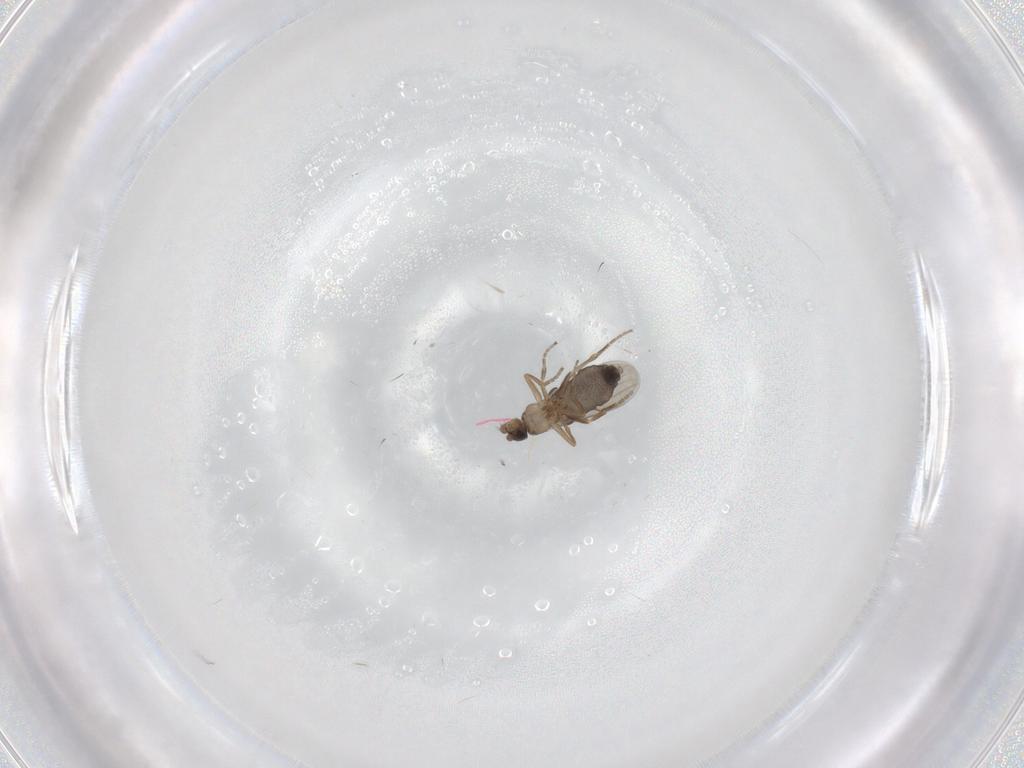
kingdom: Animalia
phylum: Arthropoda
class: Insecta
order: Diptera
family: Phoridae
